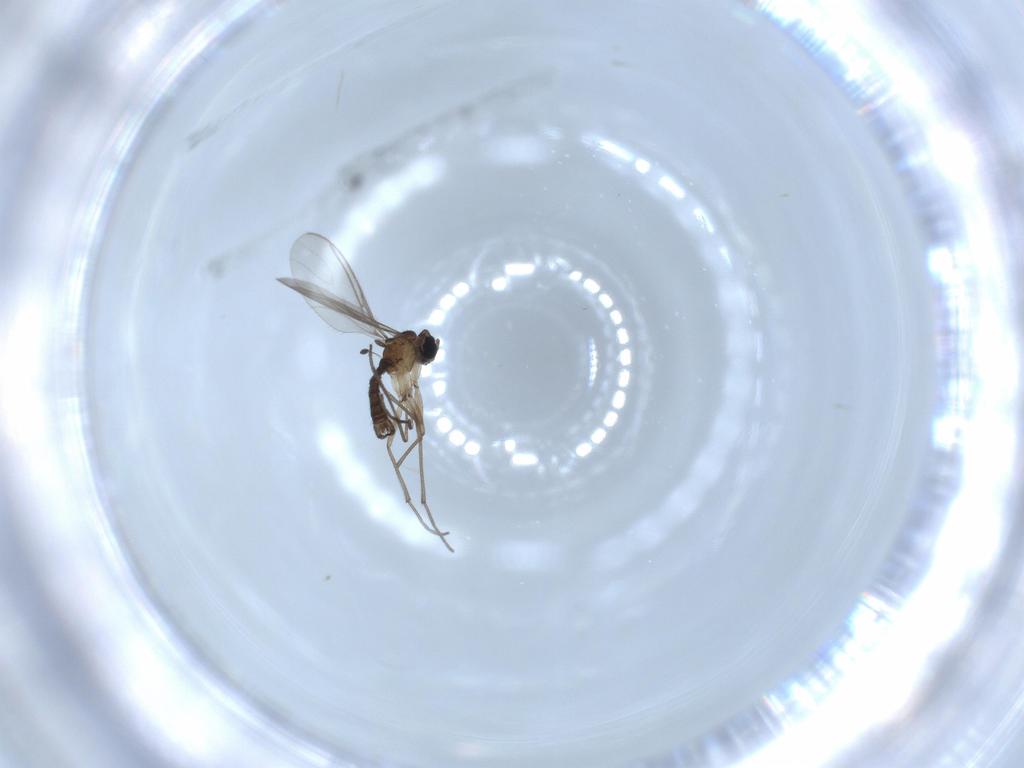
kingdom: Animalia
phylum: Arthropoda
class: Insecta
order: Diptera
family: Sciaridae
